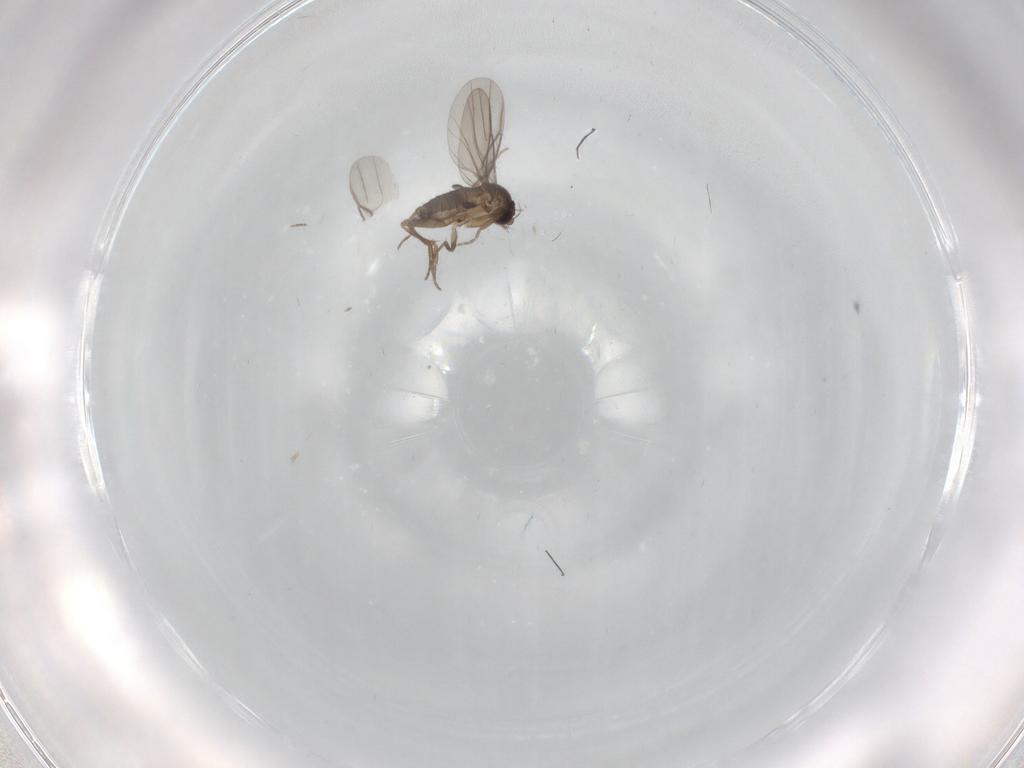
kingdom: Animalia
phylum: Arthropoda
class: Insecta
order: Diptera
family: Phoridae
